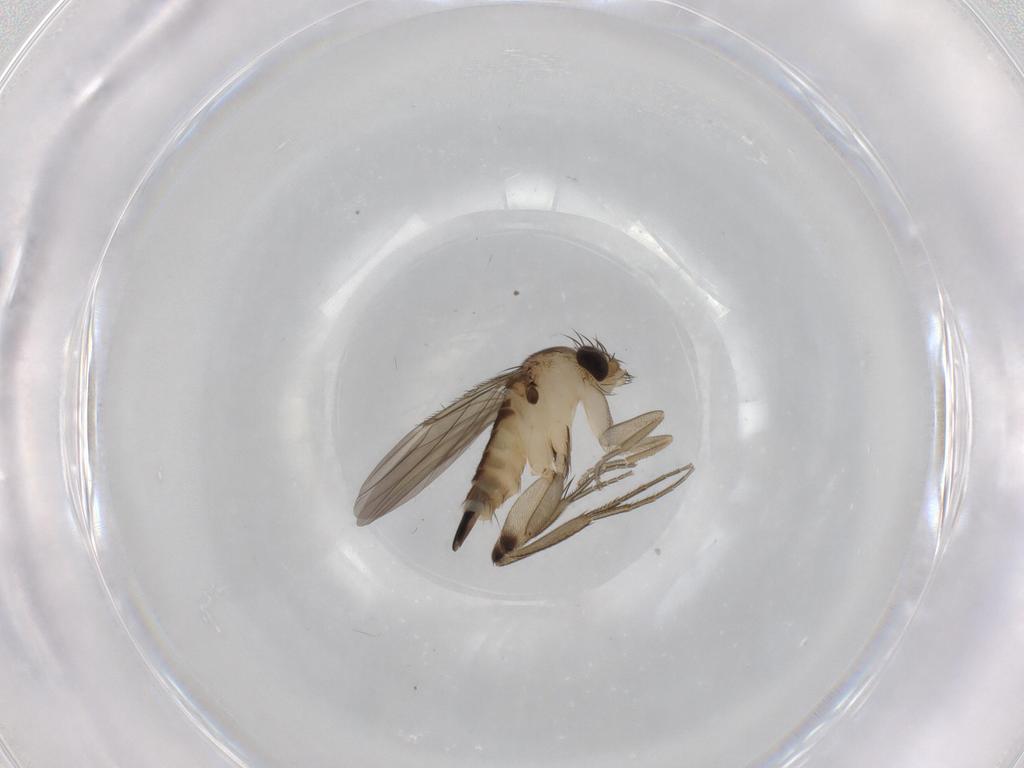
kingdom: Animalia
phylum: Arthropoda
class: Insecta
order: Diptera
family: Phoridae
